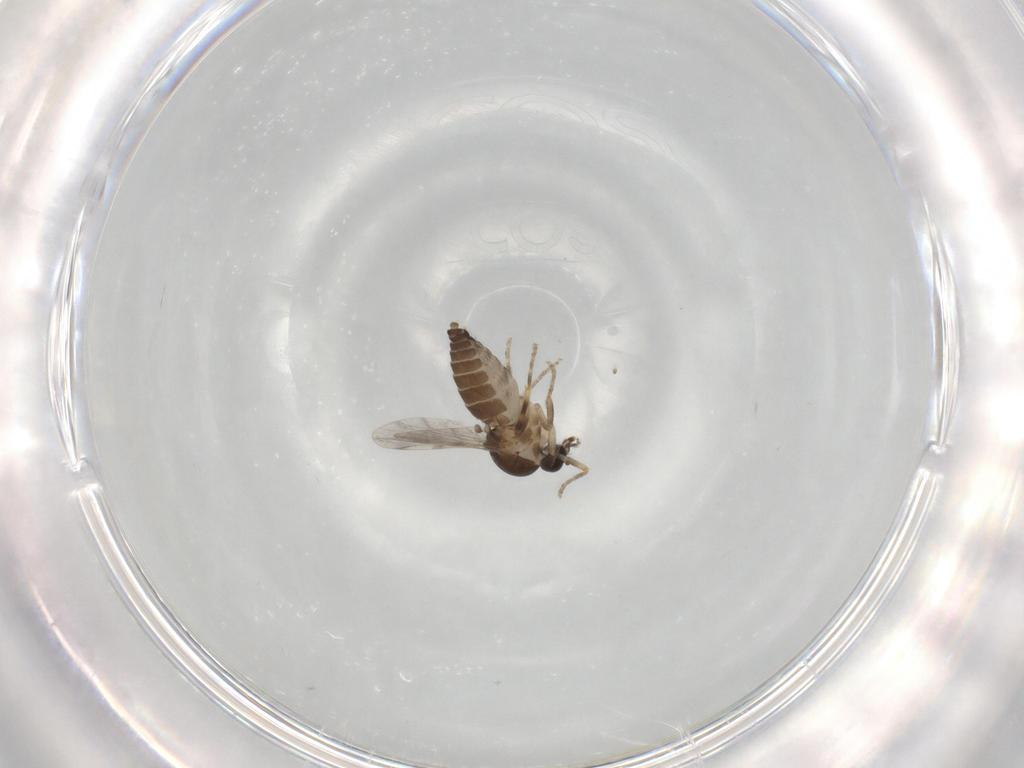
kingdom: Animalia
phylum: Arthropoda
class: Insecta
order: Diptera
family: Ceratopogonidae
